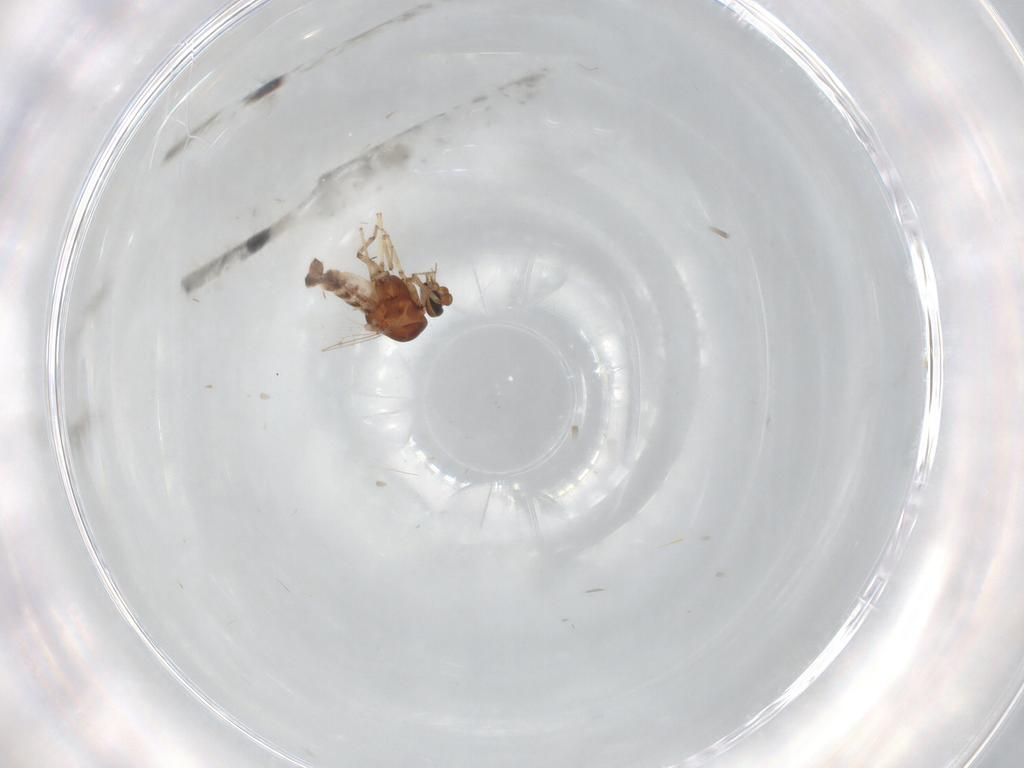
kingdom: Animalia
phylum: Arthropoda
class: Insecta
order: Diptera
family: Cecidomyiidae
